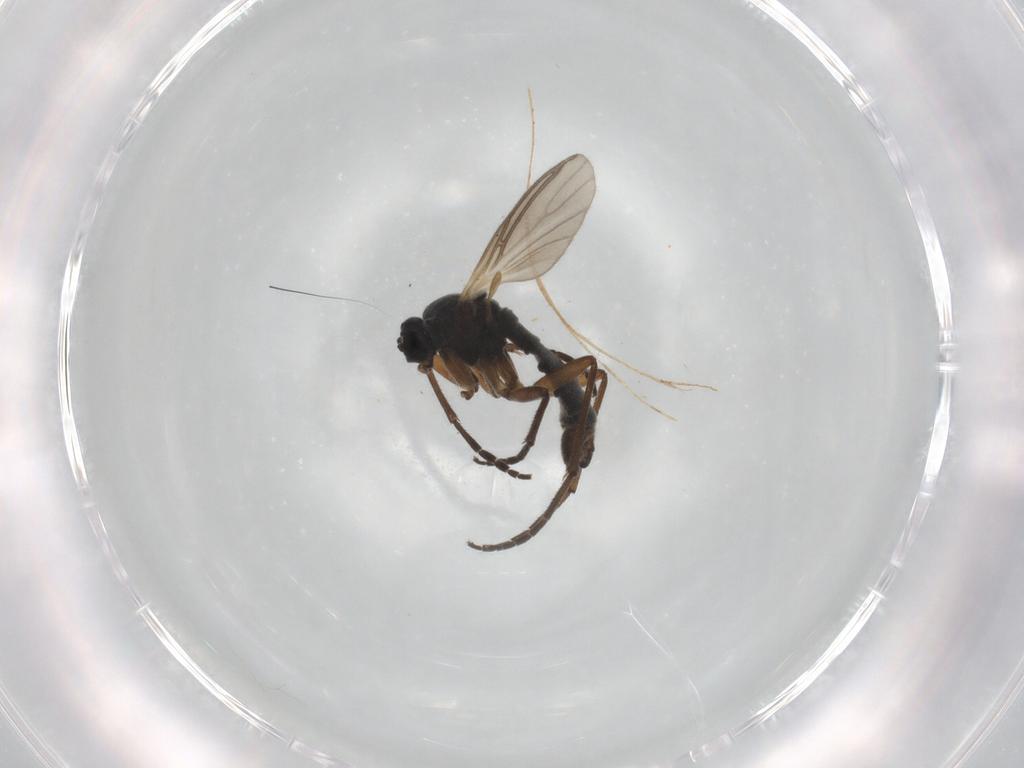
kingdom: Animalia
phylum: Arthropoda
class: Insecta
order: Diptera
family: Sciaridae
